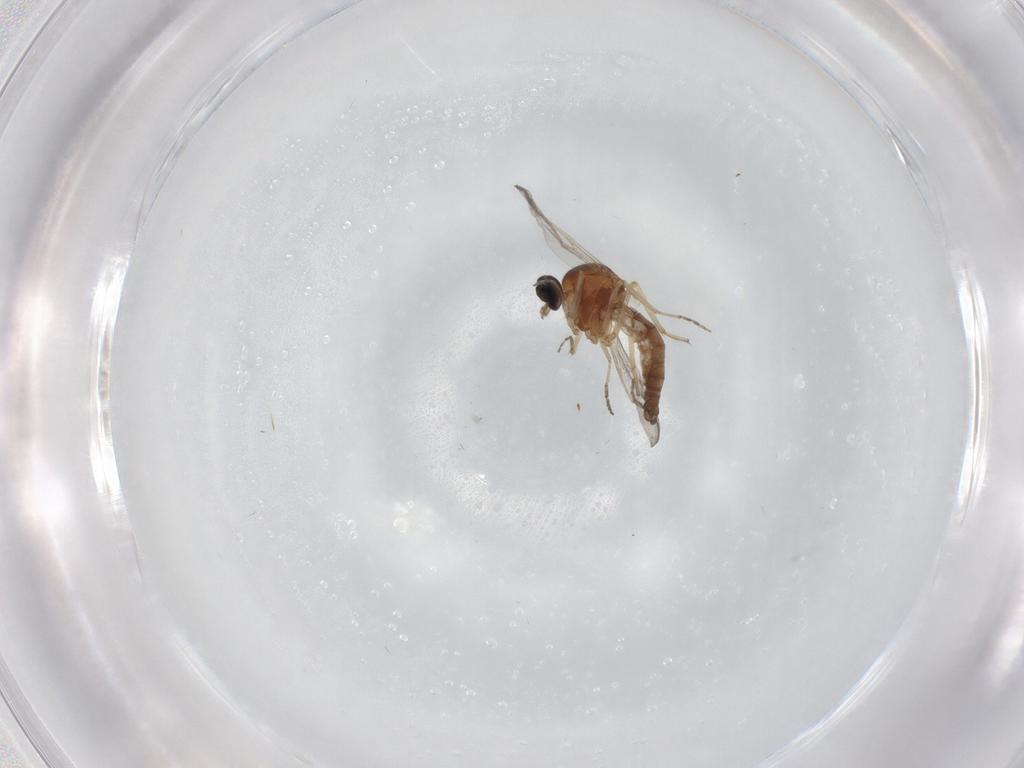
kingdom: Animalia
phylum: Arthropoda
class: Insecta
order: Diptera
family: Ceratopogonidae
